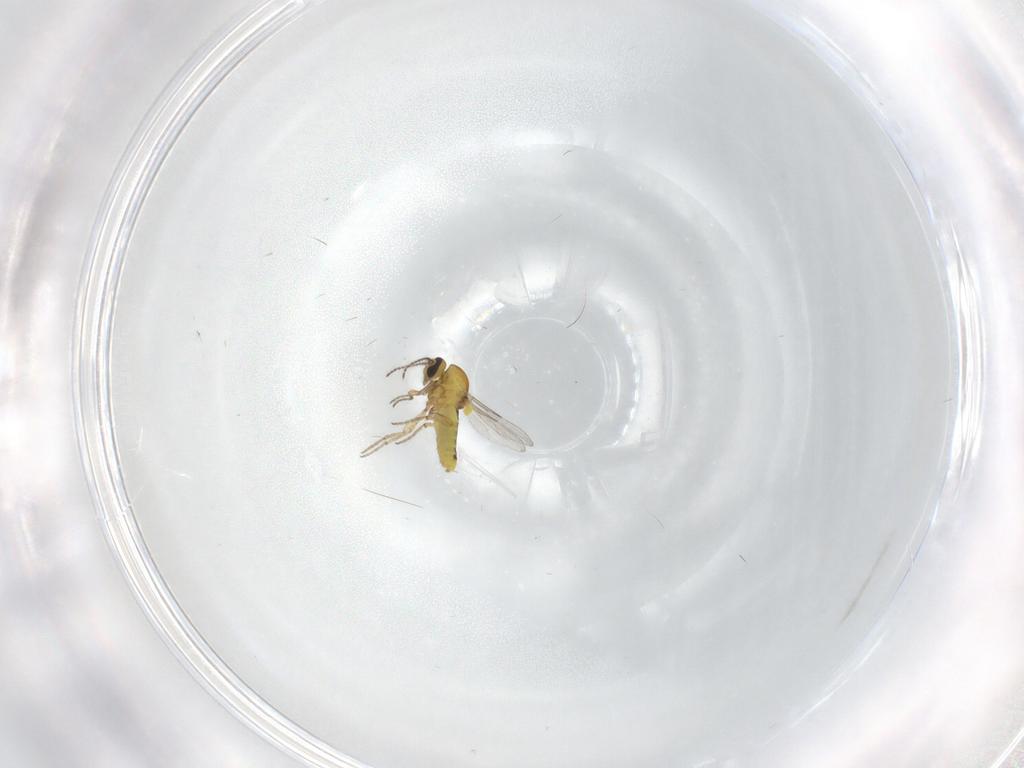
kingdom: Animalia
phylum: Arthropoda
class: Insecta
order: Diptera
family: Ceratopogonidae
